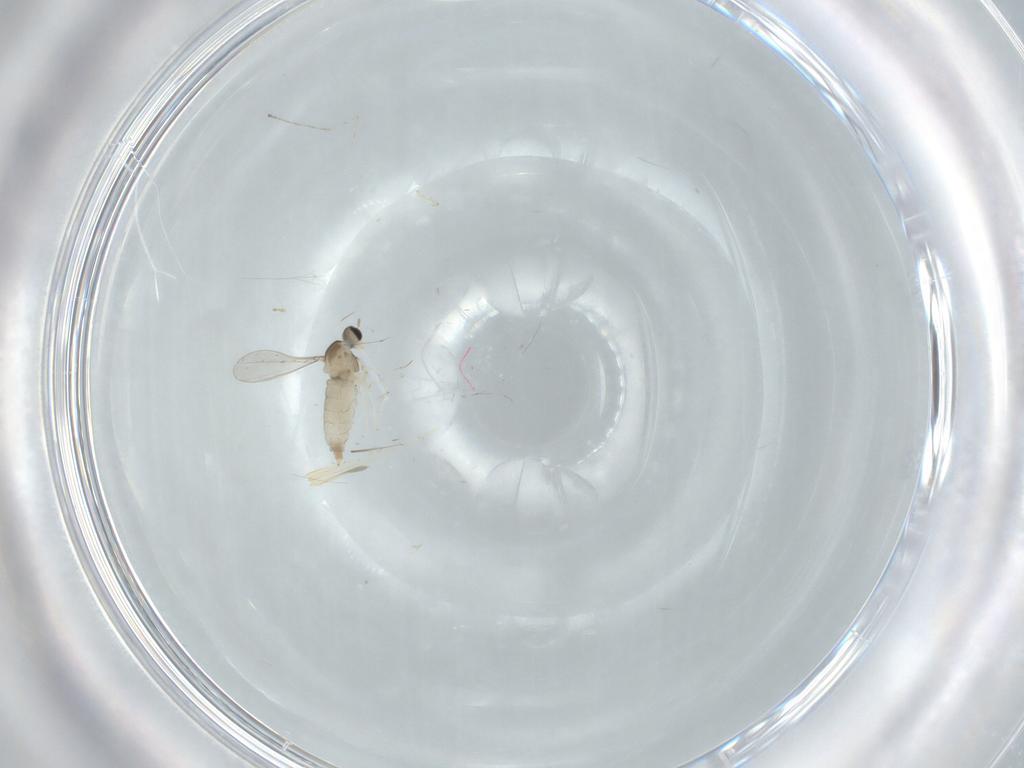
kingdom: Animalia
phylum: Arthropoda
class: Insecta
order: Diptera
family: Cecidomyiidae
